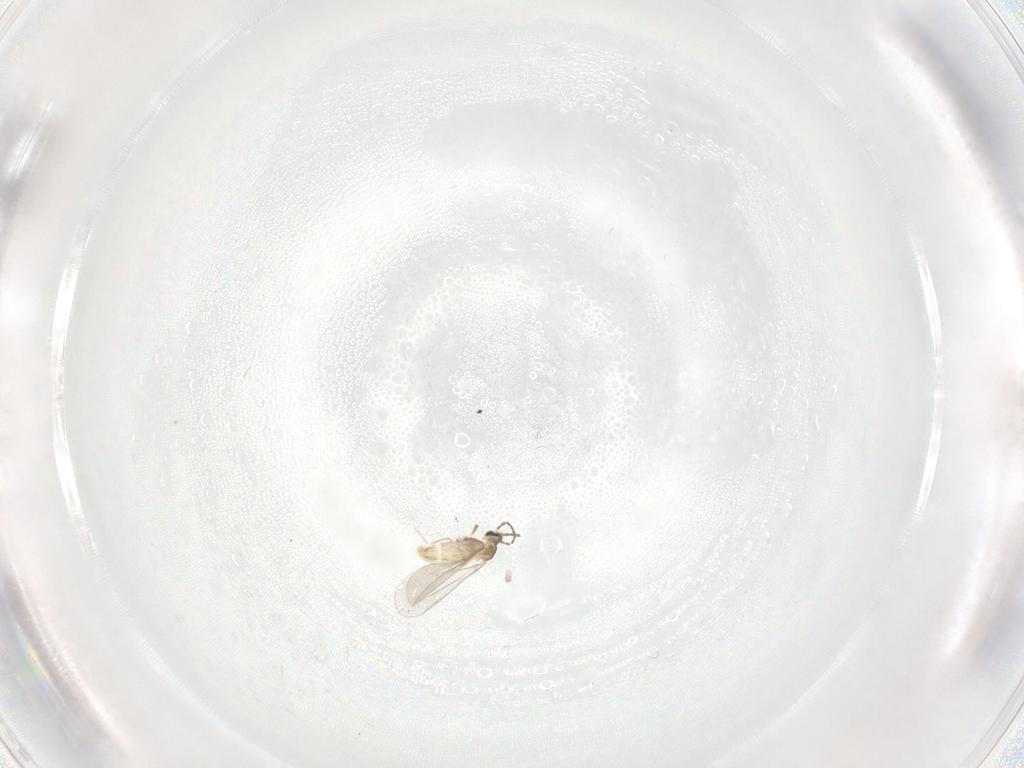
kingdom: Animalia
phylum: Arthropoda
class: Insecta
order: Diptera
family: Cecidomyiidae
